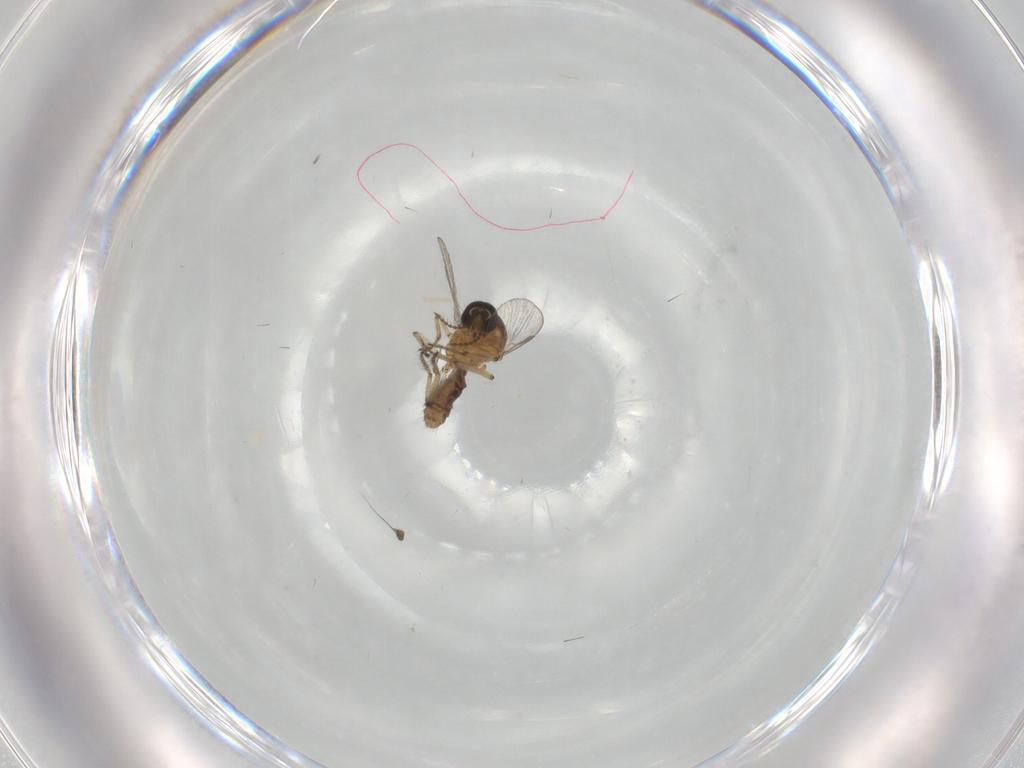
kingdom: Animalia
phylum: Arthropoda
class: Insecta
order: Diptera
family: Ceratopogonidae
